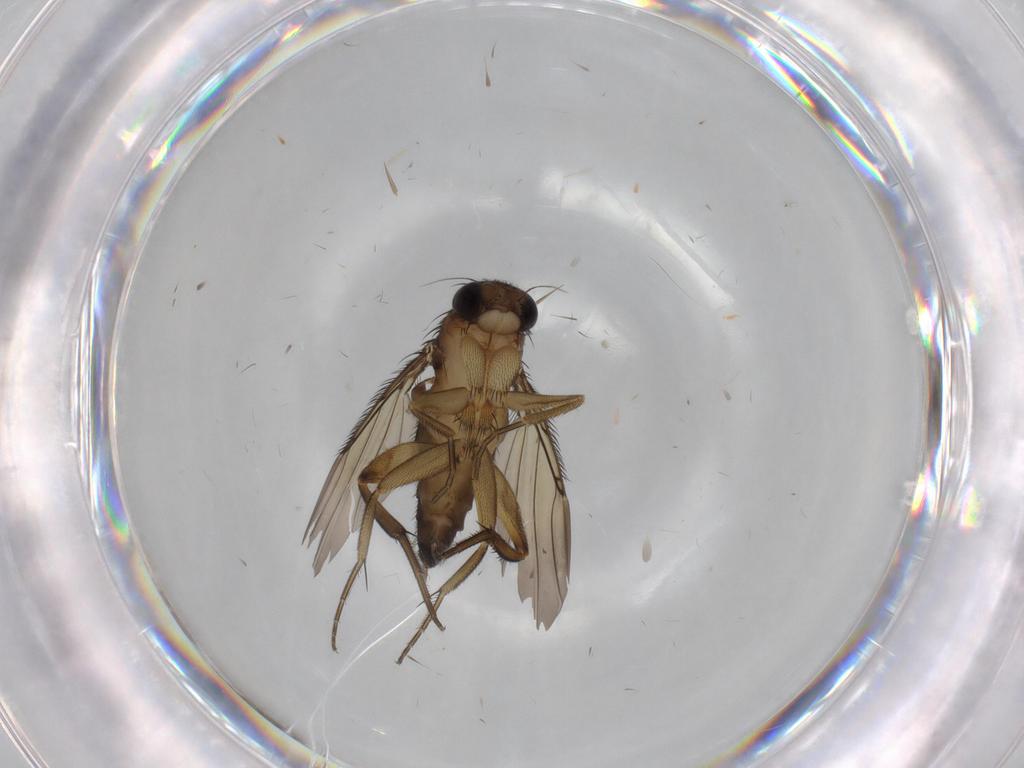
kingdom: Animalia
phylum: Arthropoda
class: Insecta
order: Diptera
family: Phoridae
